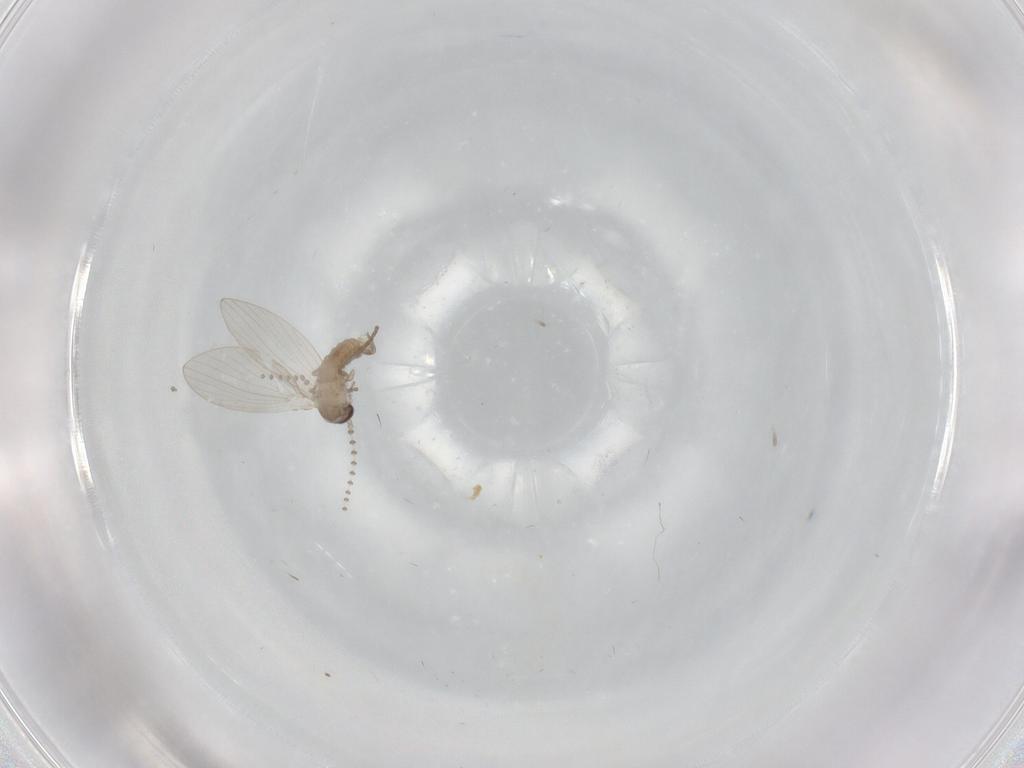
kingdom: Animalia
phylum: Arthropoda
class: Insecta
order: Diptera
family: Psychodidae
